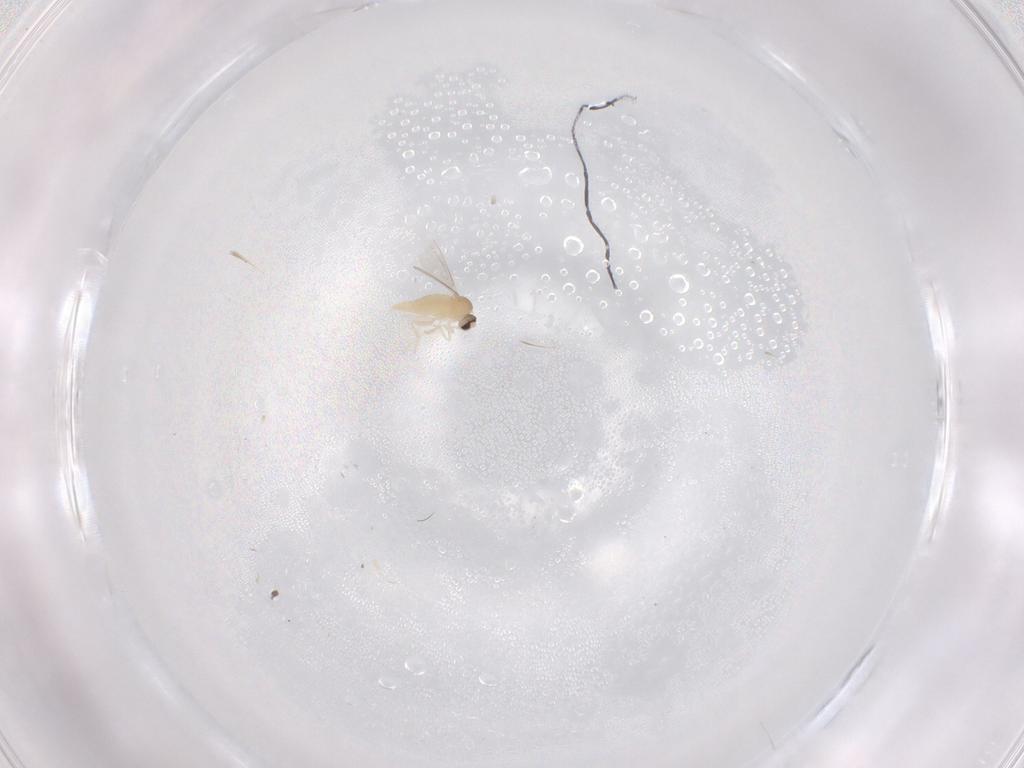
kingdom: Animalia
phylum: Arthropoda
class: Insecta
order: Diptera
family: Cecidomyiidae
